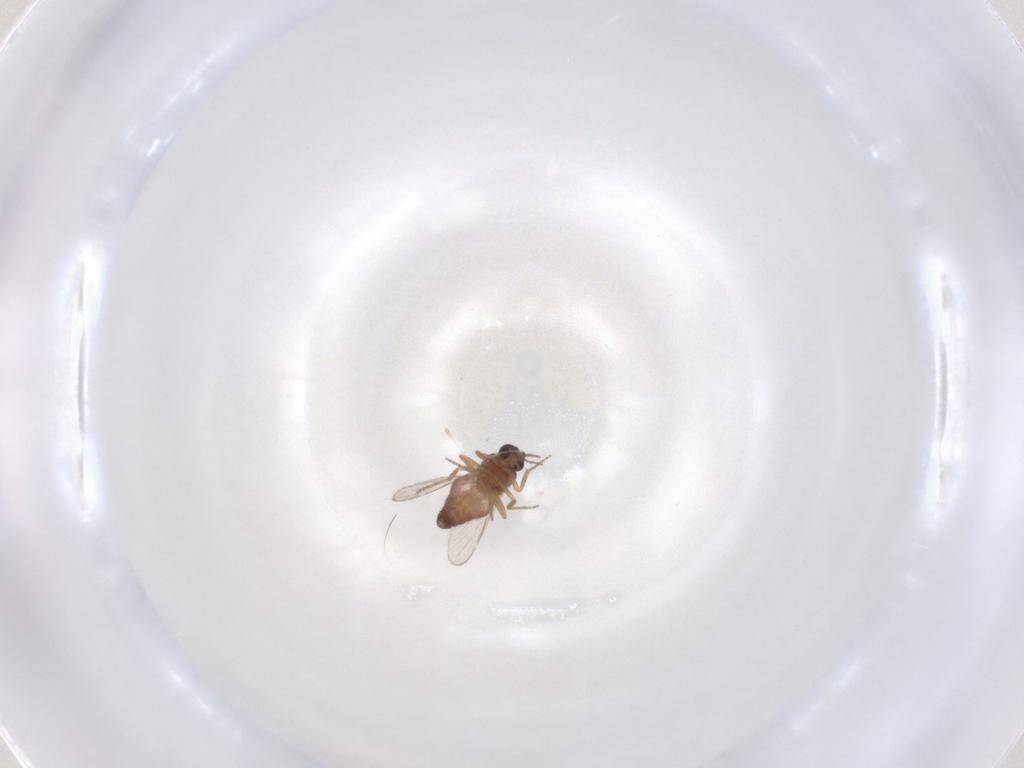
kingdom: Animalia
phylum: Arthropoda
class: Insecta
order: Diptera
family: Ceratopogonidae
